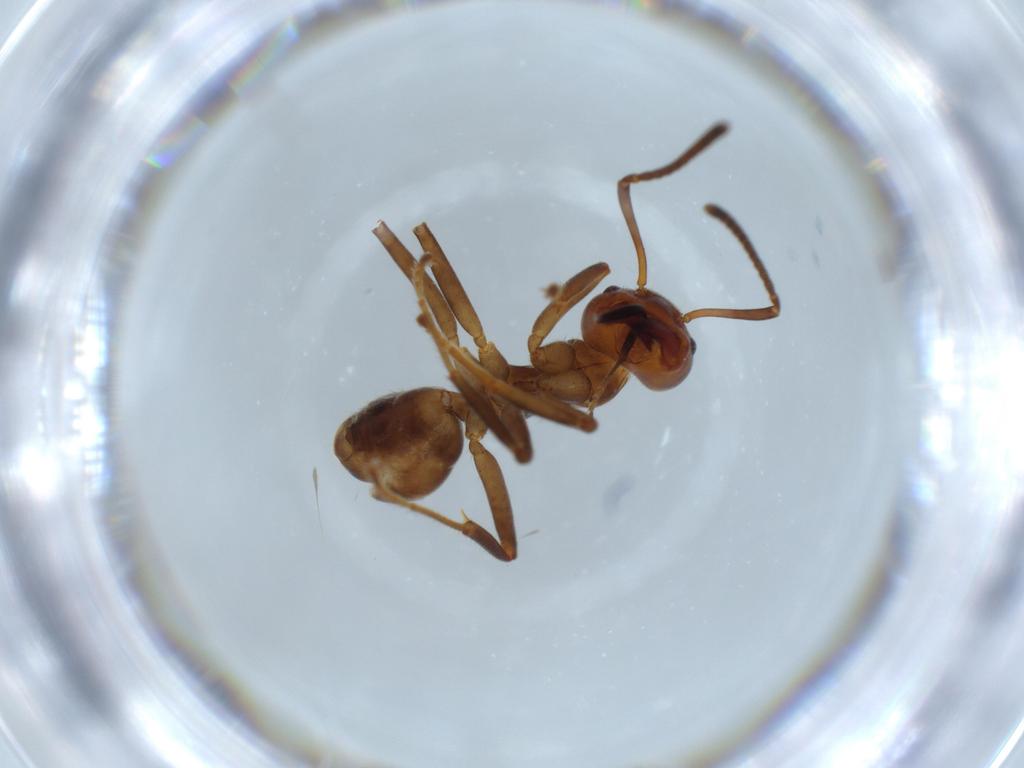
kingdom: Animalia
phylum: Arthropoda
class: Insecta
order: Hymenoptera
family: Formicidae
